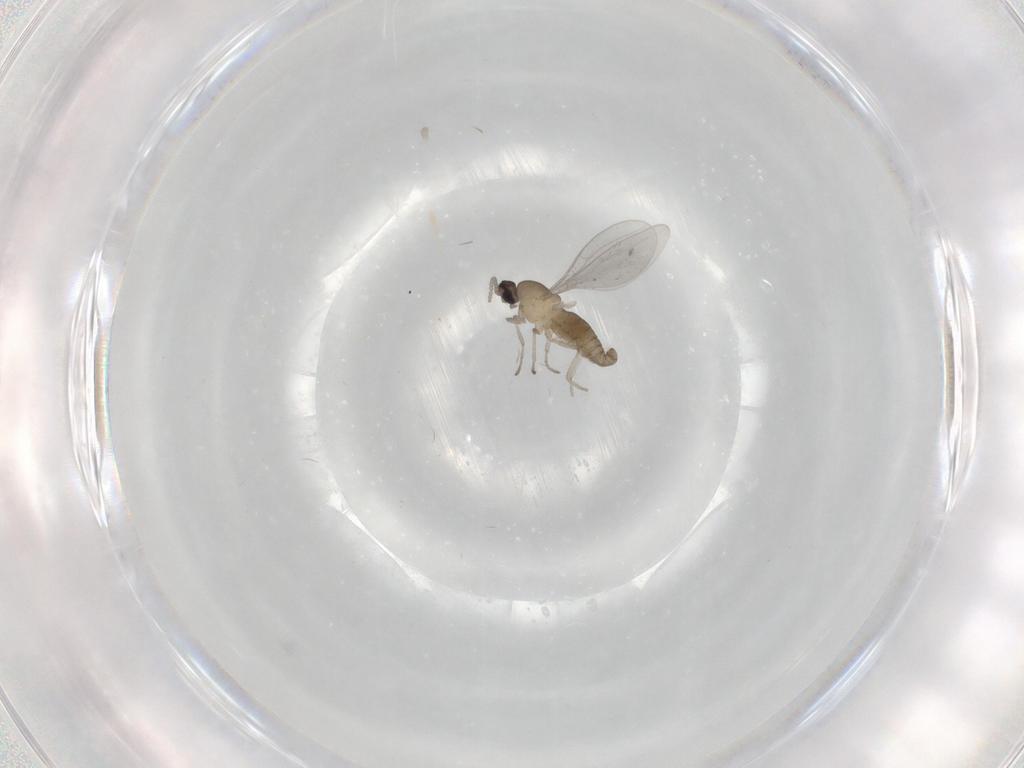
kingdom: Animalia
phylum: Arthropoda
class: Insecta
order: Diptera
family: Cecidomyiidae
